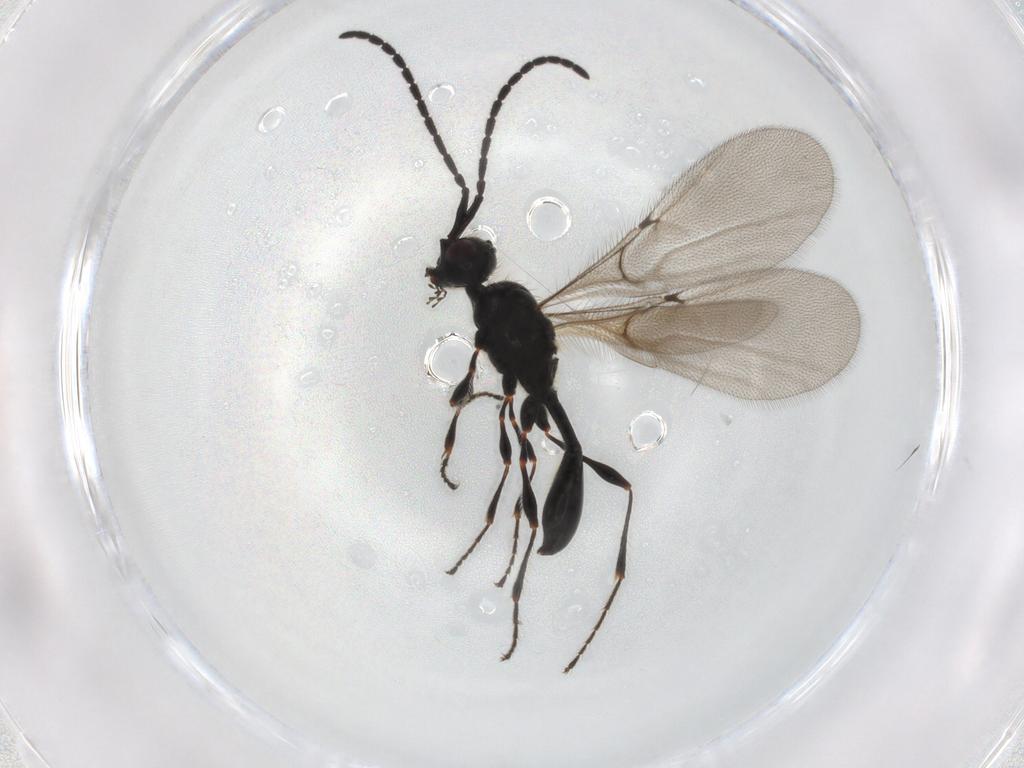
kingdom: Animalia
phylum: Arthropoda
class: Insecta
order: Hymenoptera
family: Diapriidae
